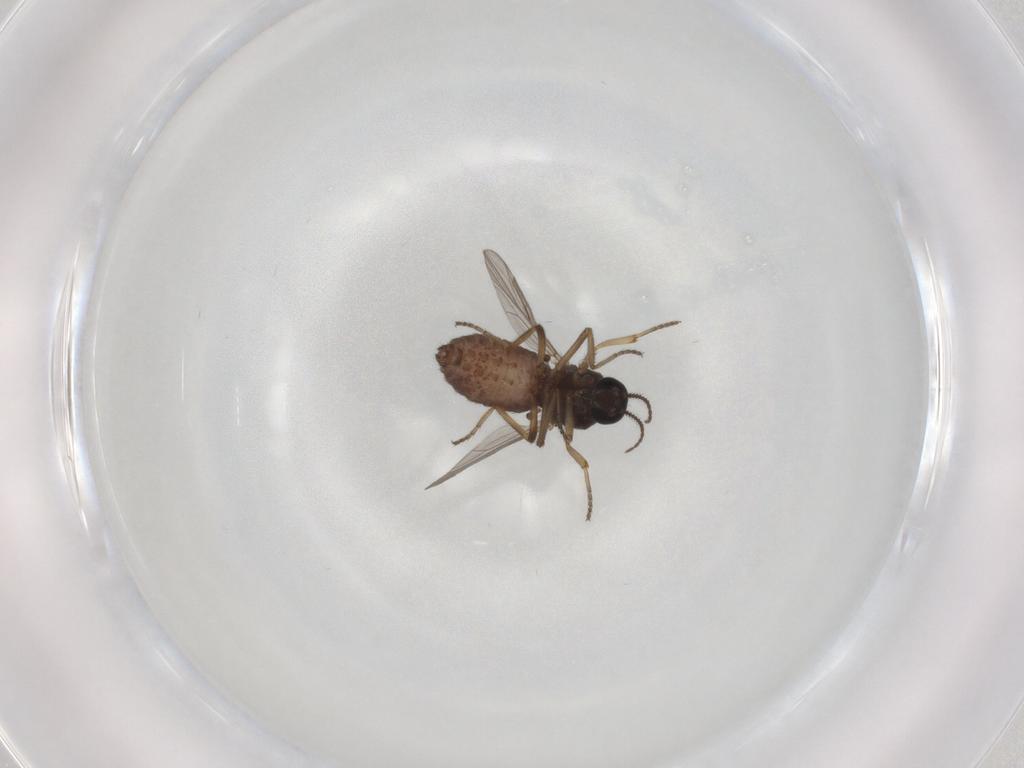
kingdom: Animalia
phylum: Arthropoda
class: Insecta
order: Diptera
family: Ceratopogonidae
